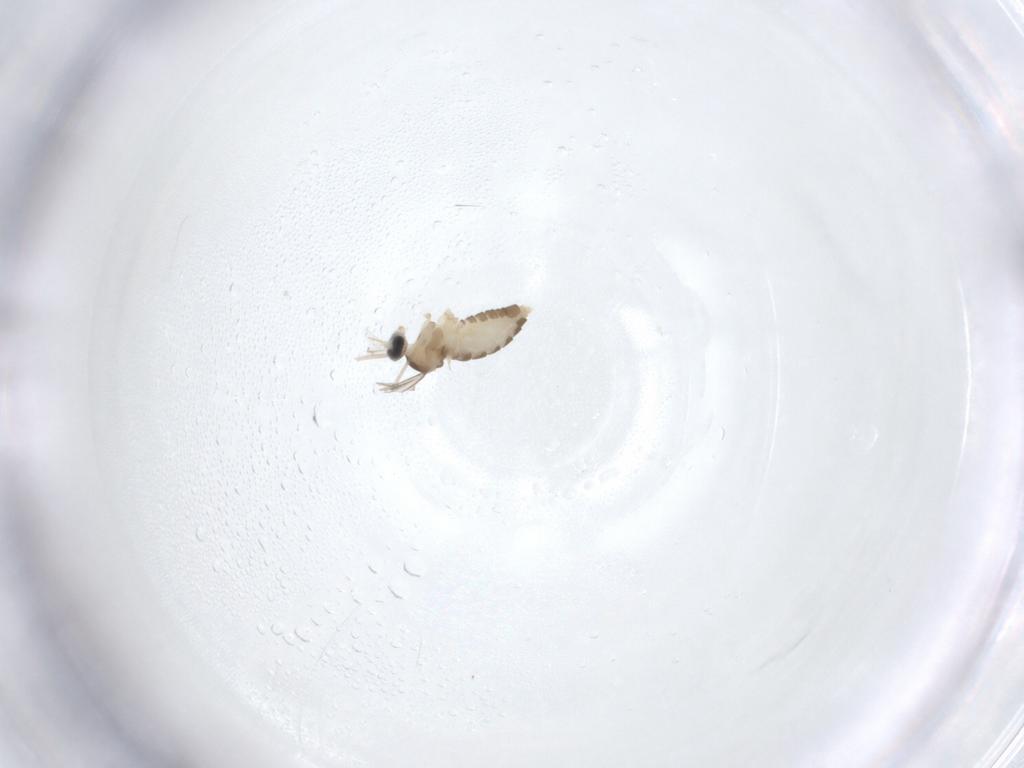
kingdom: Animalia
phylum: Arthropoda
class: Insecta
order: Diptera
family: Cecidomyiidae
